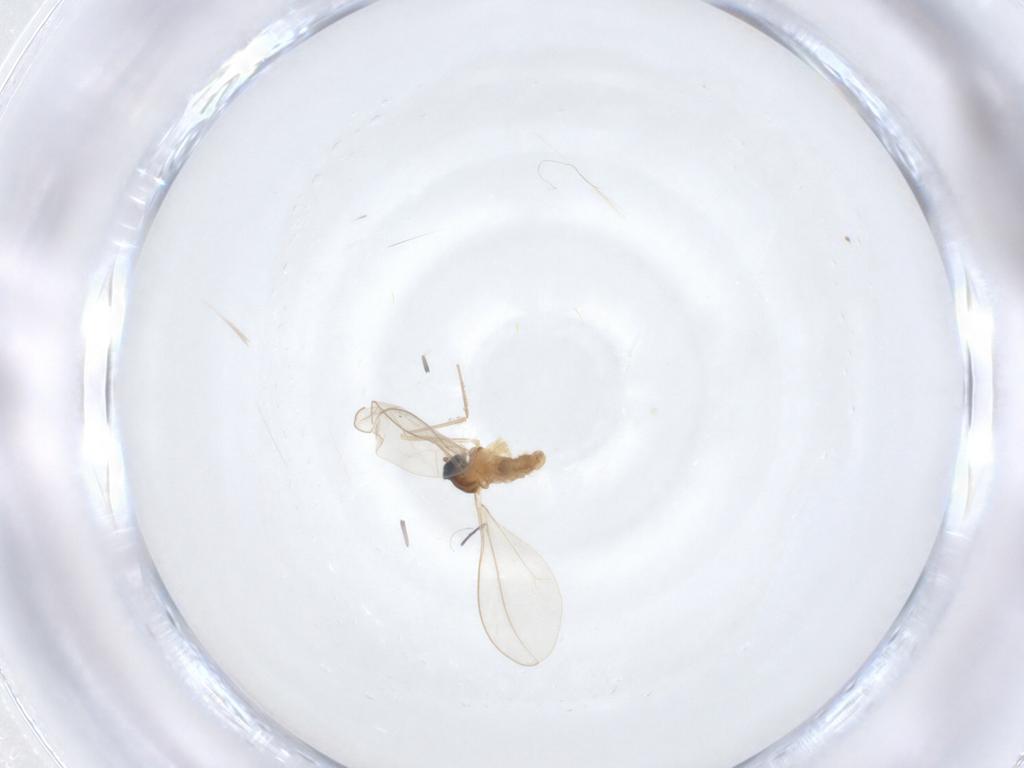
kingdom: Animalia
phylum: Arthropoda
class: Insecta
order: Diptera
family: Cecidomyiidae
